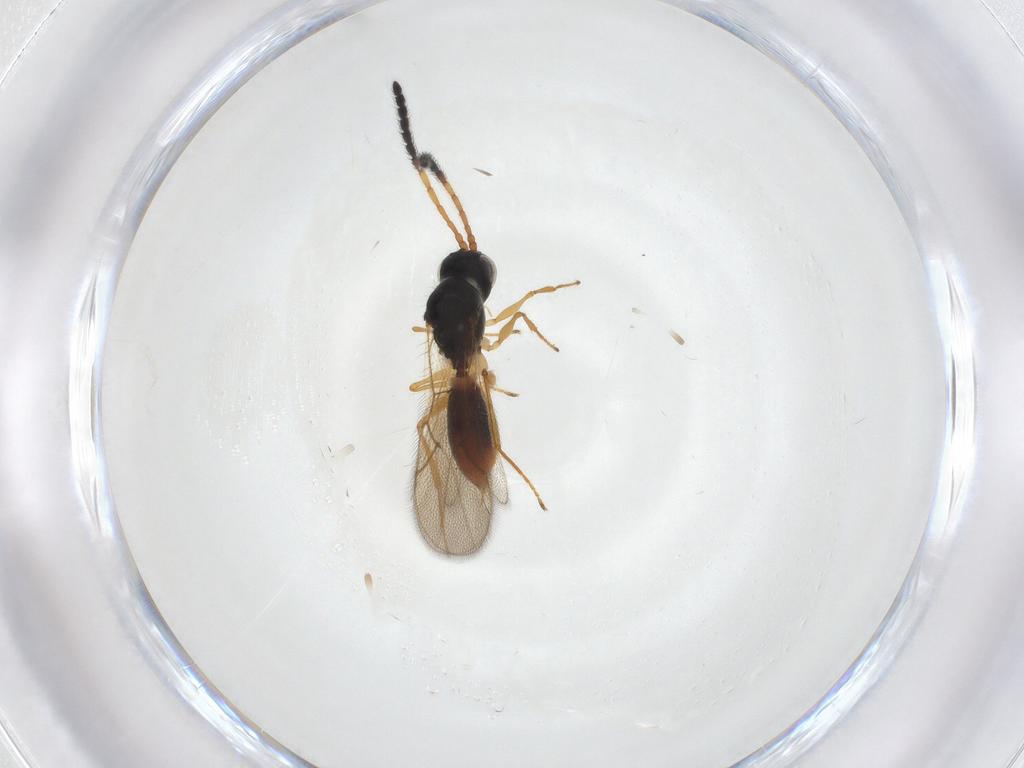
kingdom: Animalia
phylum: Arthropoda
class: Insecta
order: Hymenoptera
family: Figitidae
